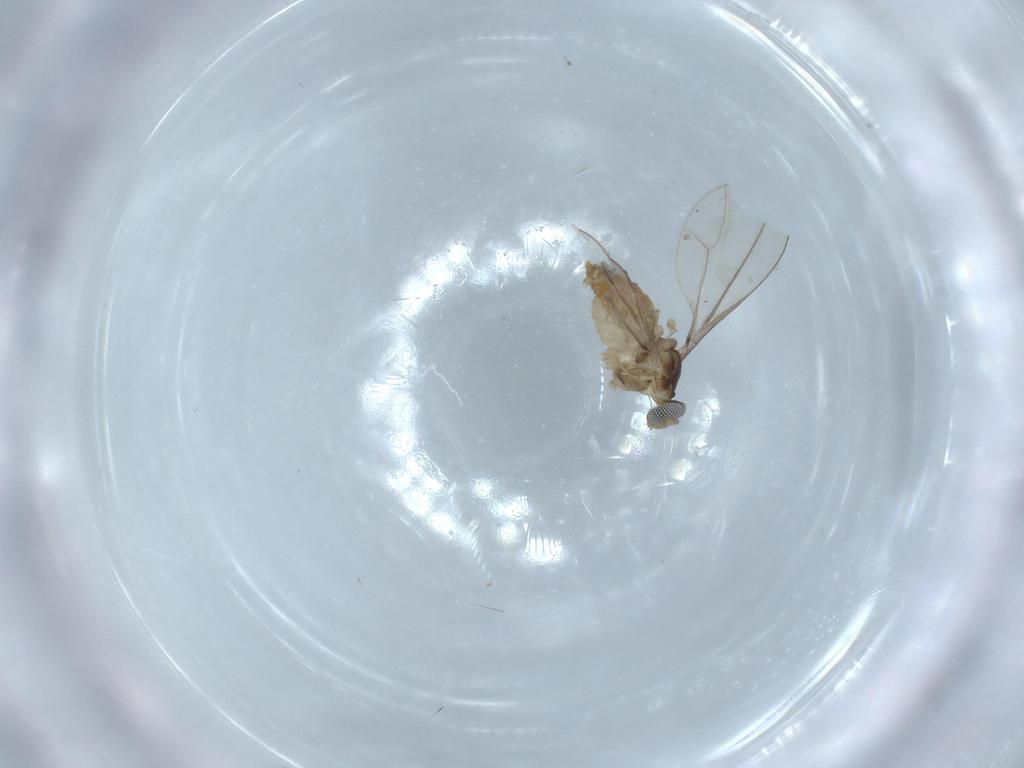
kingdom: Animalia
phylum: Arthropoda
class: Insecta
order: Diptera
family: Cecidomyiidae
